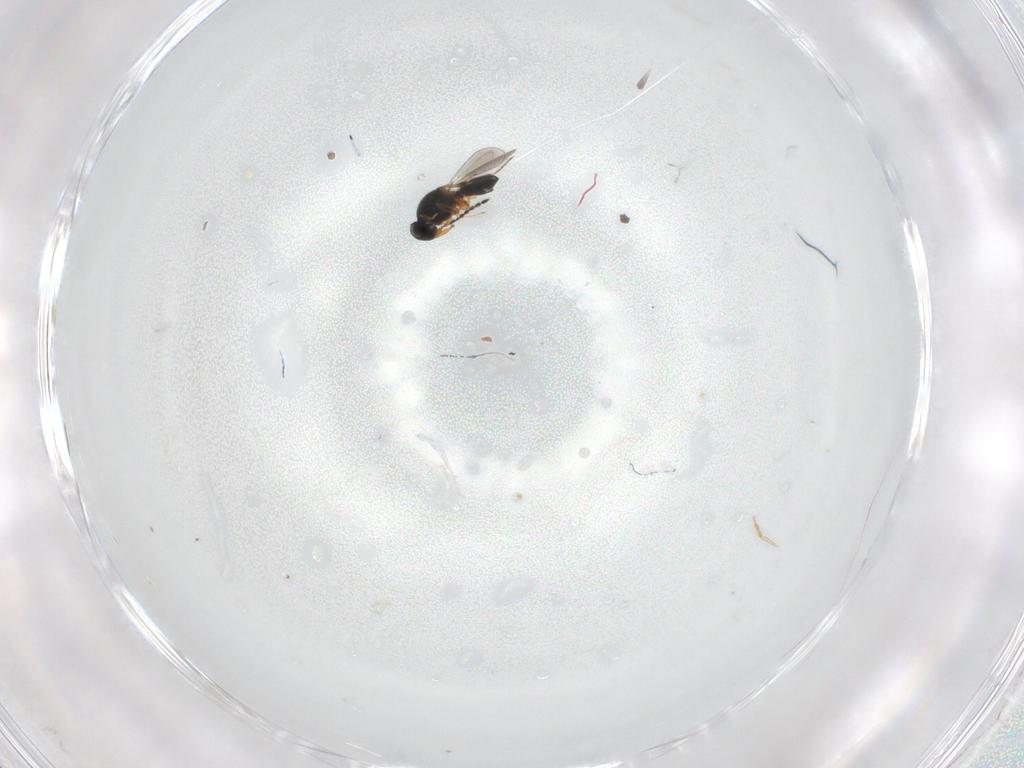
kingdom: Animalia
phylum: Arthropoda
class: Insecta
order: Hymenoptera
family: Platygastridae
